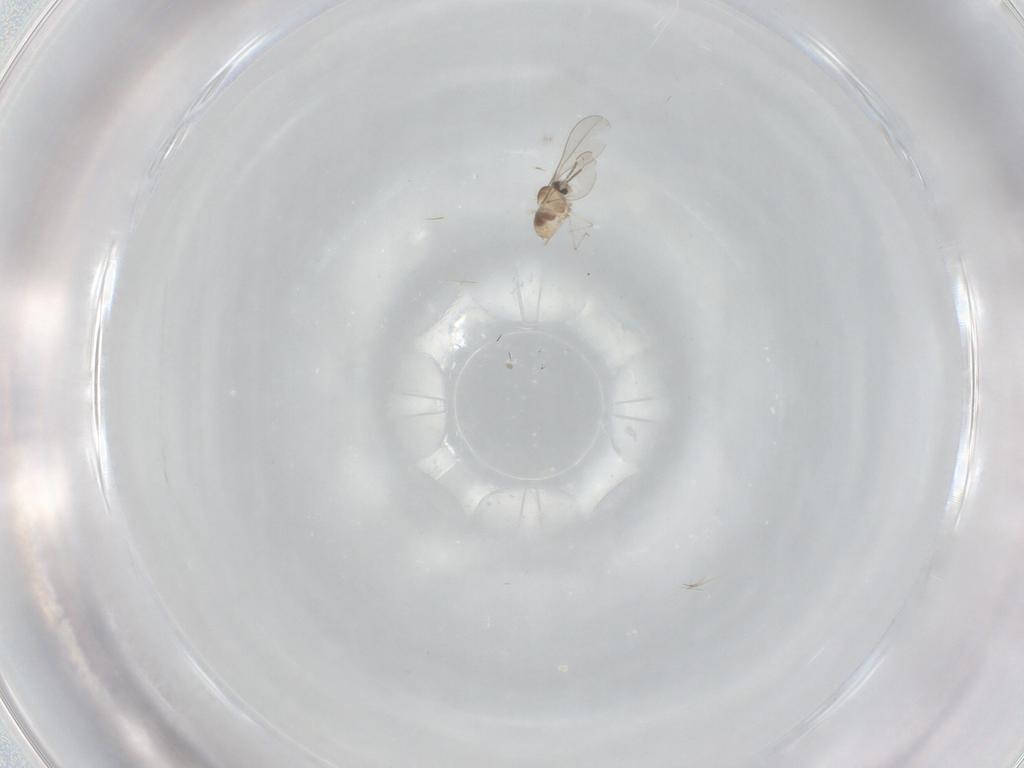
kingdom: Animalia
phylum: Arthropoda
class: Insecta
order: Diptera
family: Cecidomyiidae
